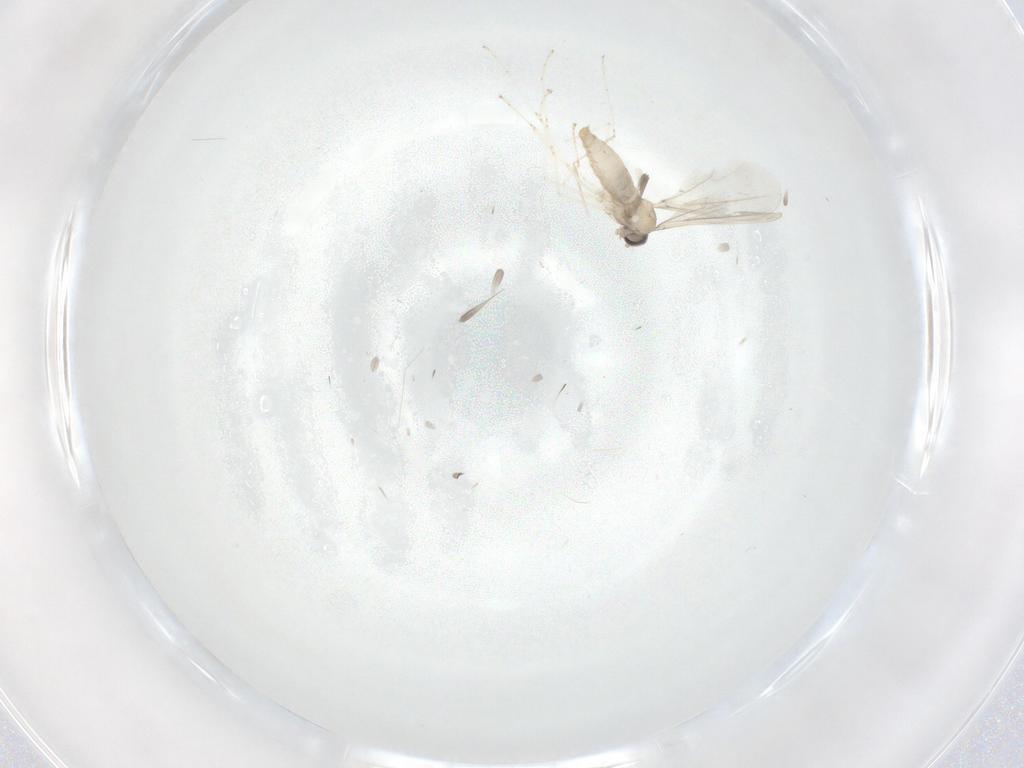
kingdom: Animalia
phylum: Arthropoda
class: Insecta
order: Diptera
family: Cecidomyiidae
